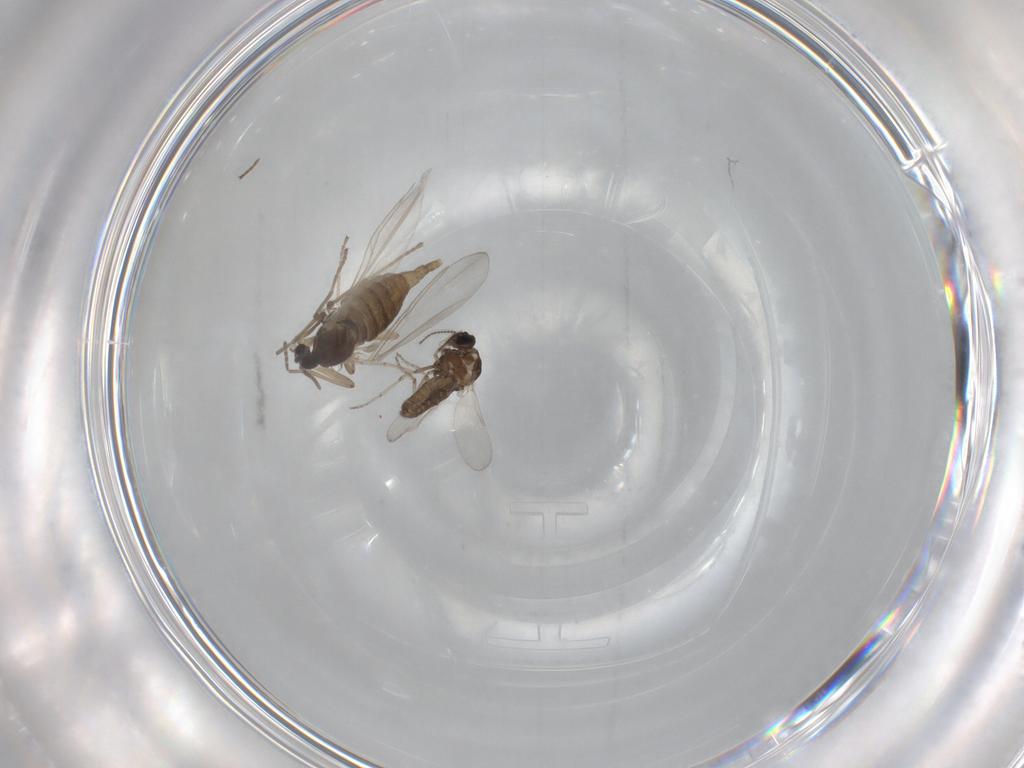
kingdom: Animalia
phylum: Arthropoda
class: Insecta
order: Diptera
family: Ceratopogonidae
